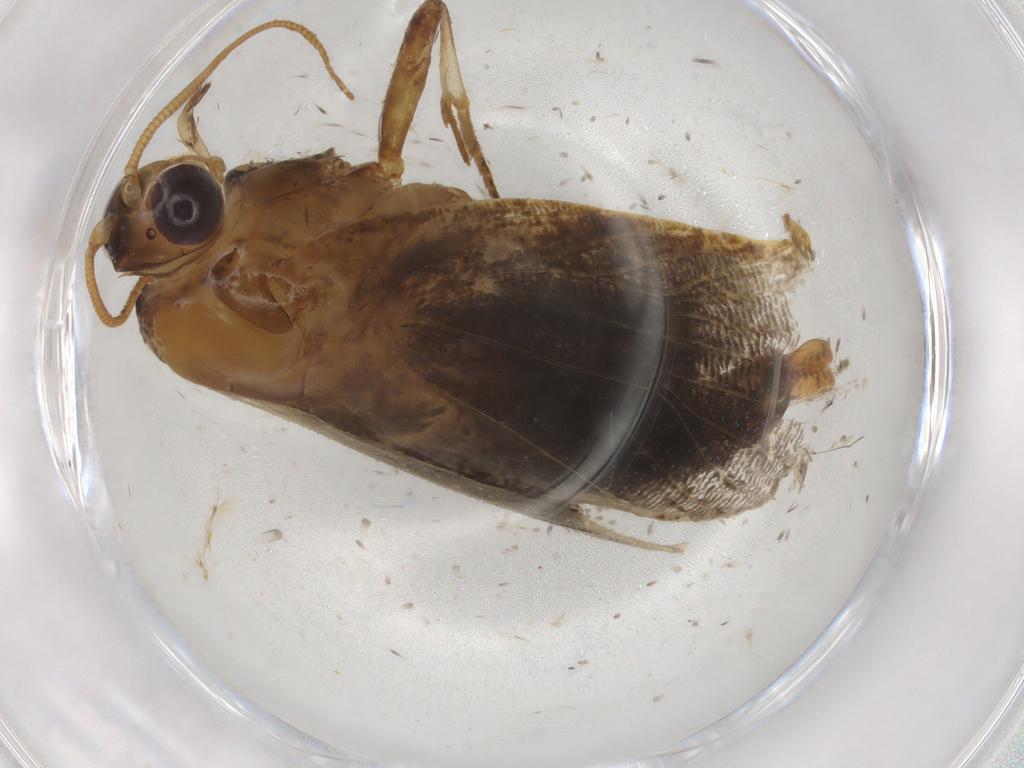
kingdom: Animalia
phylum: Arthropoda
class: Insecta
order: Lepidoptera
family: Tortricidae
